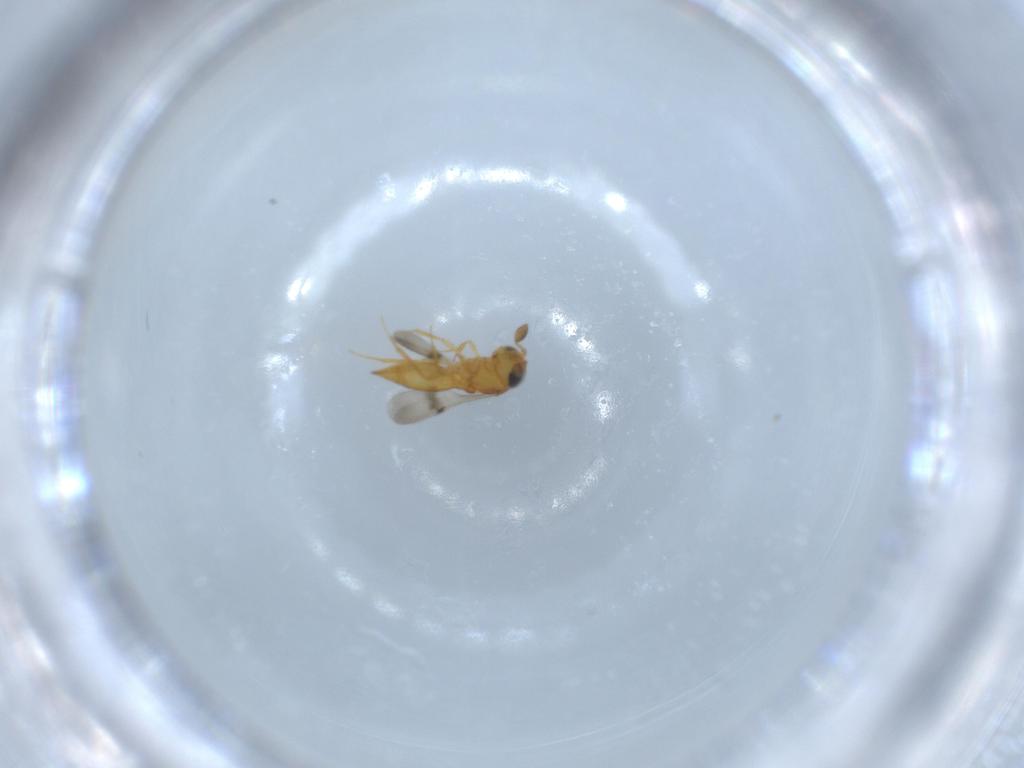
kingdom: Animalia
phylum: Arthropoda
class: Insecta
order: Hymenoptera
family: Scelionidae
